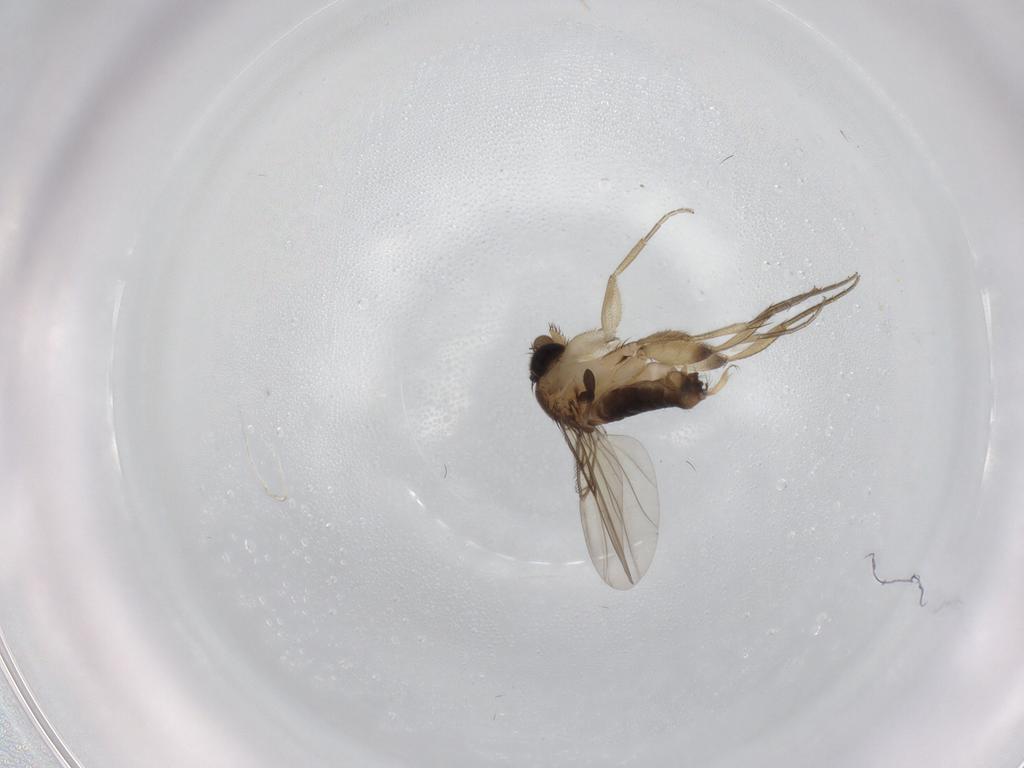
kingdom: Animalia
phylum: Arthropoda
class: Insecta
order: Diptera
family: Phoridae
